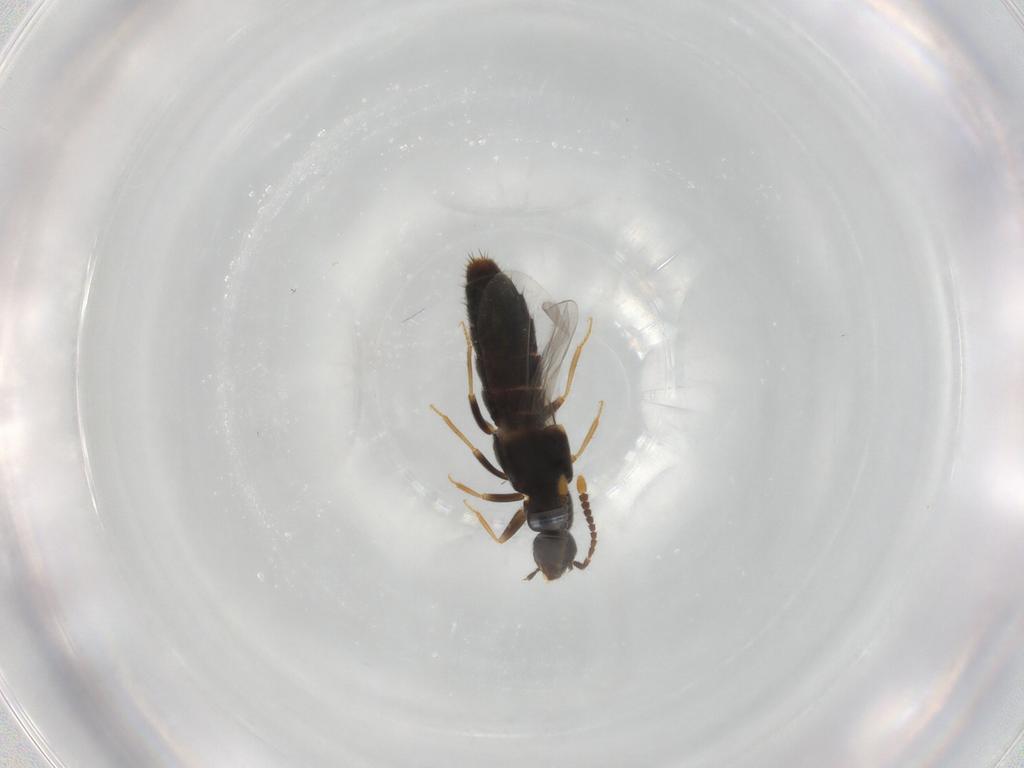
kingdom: Animalia
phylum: Arthropoda
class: Insecta
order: Coleoptera
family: Staphylinidae
